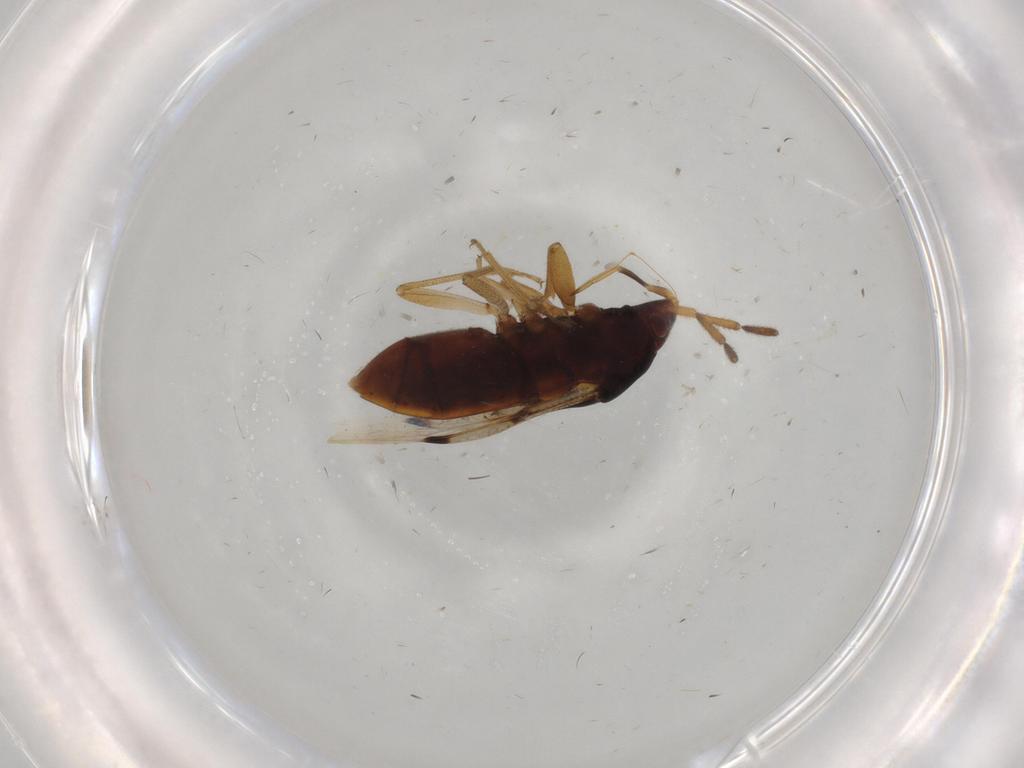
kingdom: Animalia
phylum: Arthropoda
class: Insecta
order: Hemiptera
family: Rhyparochromidae
